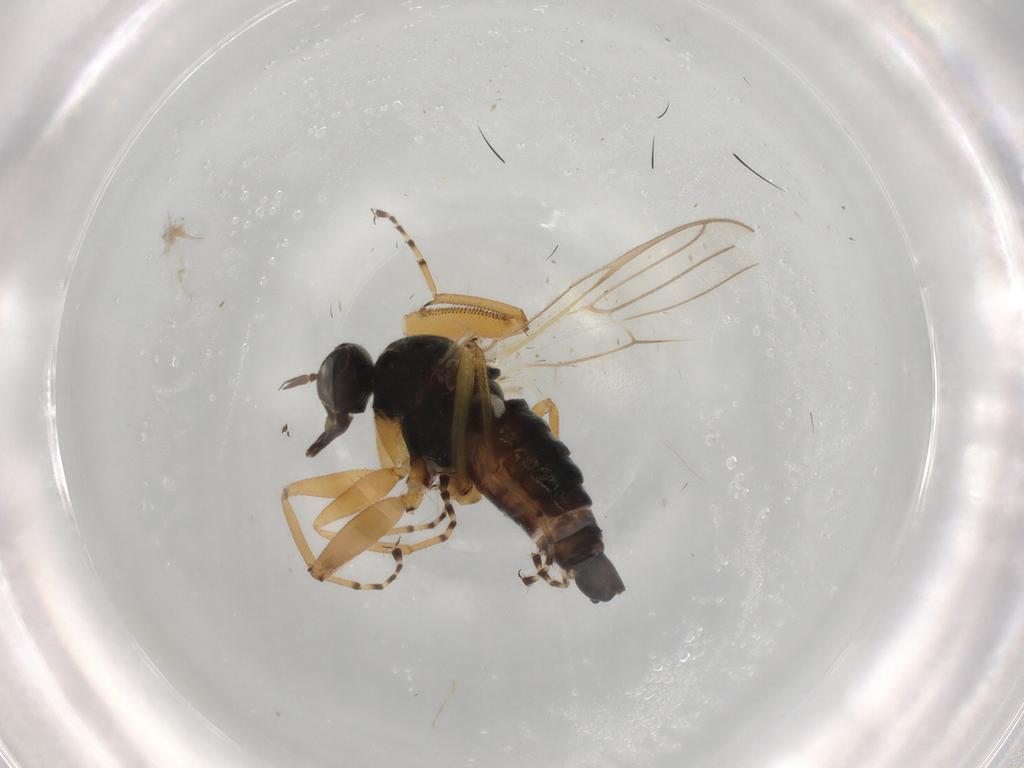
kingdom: Animalia
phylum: Arthropoda
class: Insecta
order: Diptera
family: Hybotidae
